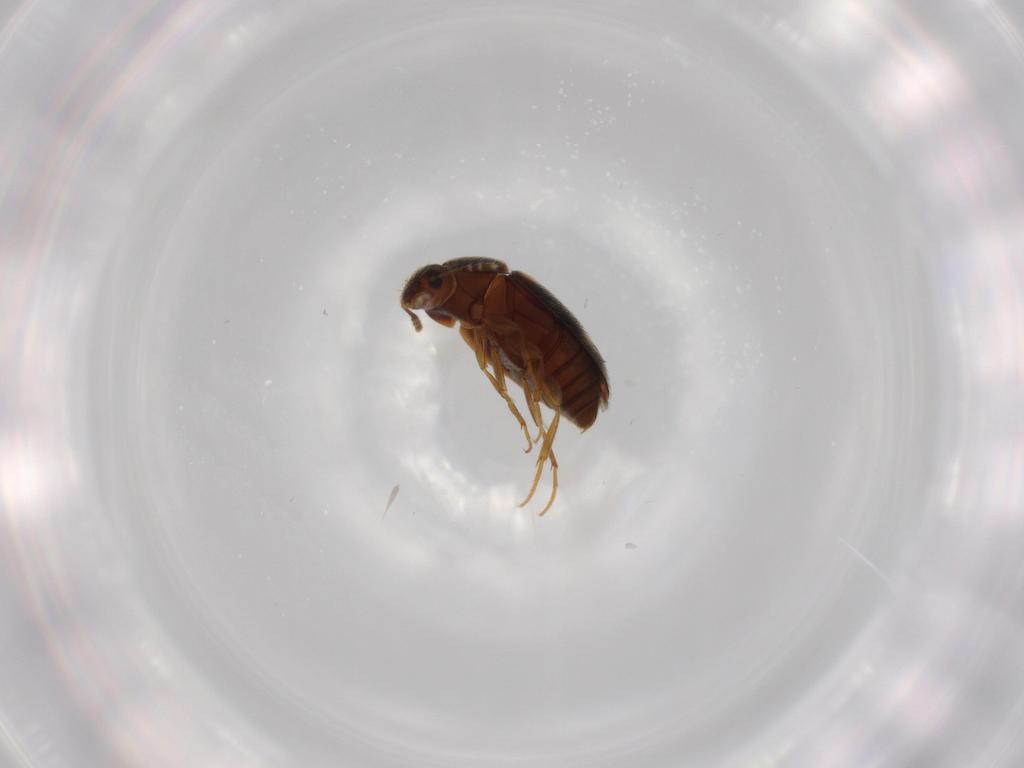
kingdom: Animalia
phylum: Arthropoda
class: Insecta
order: Coleoptera
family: Mycetophagidae
